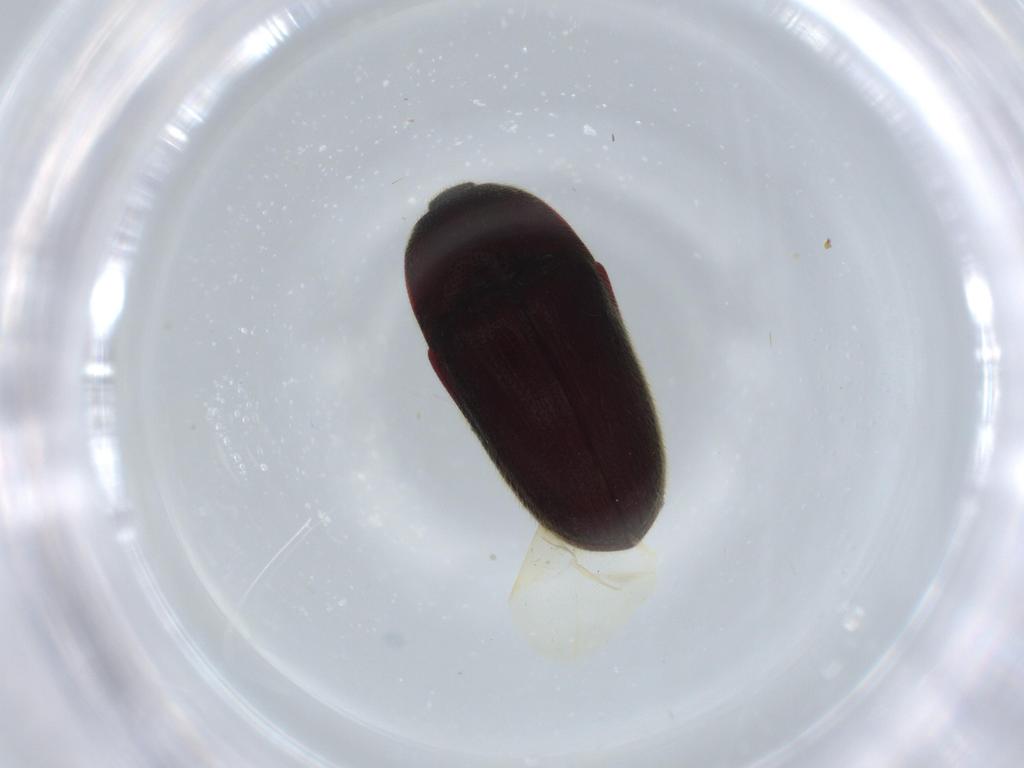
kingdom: Animalia
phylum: Arthropoda
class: Insecta
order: Coleoptera
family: Throscidae
